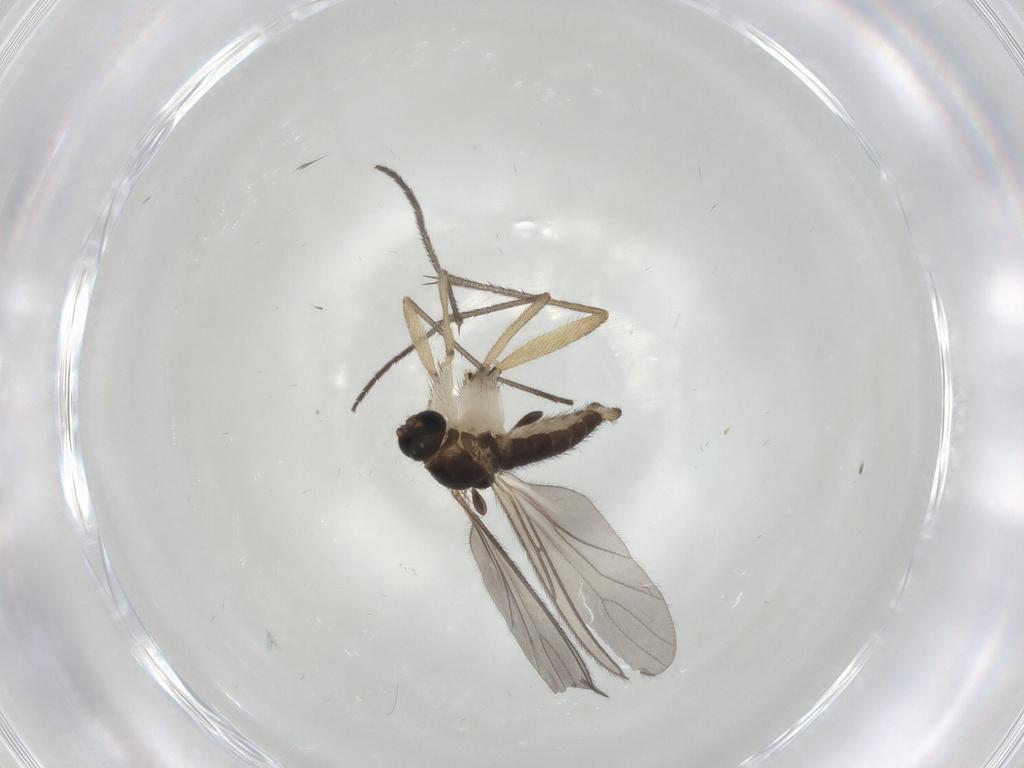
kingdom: Animalia
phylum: Arthropoda
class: Insecta
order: Diptera
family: Sciaridae
